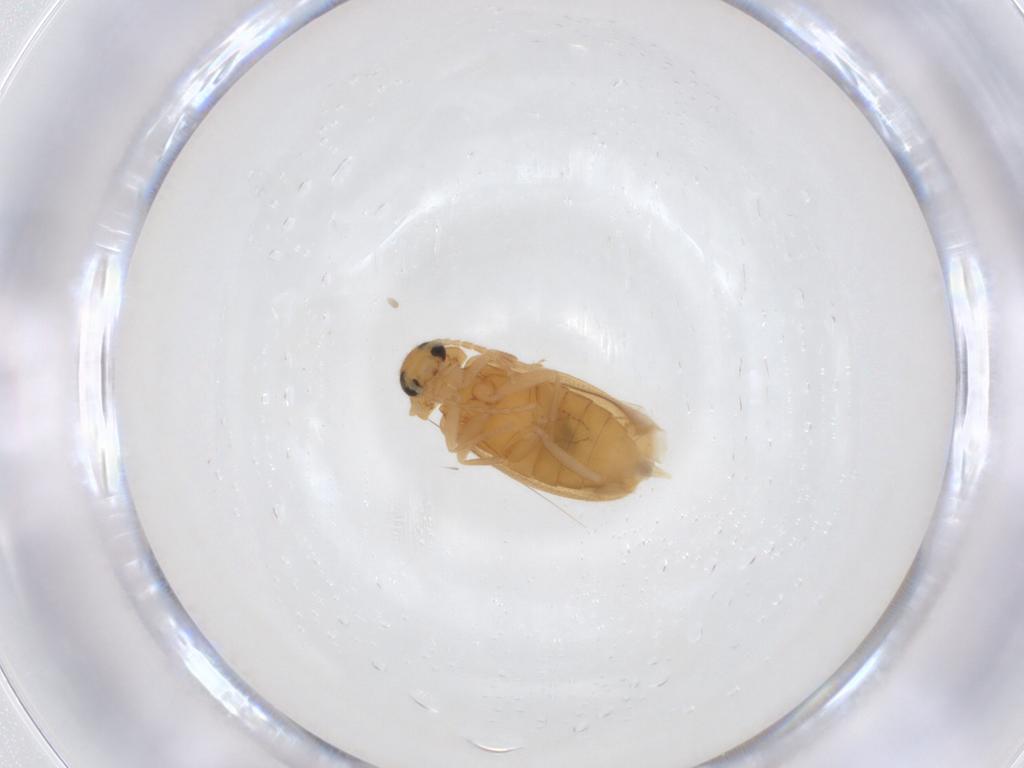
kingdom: Animalia
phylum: Arthropoda
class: Insecta
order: Coleoptera
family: Scraptiidae
